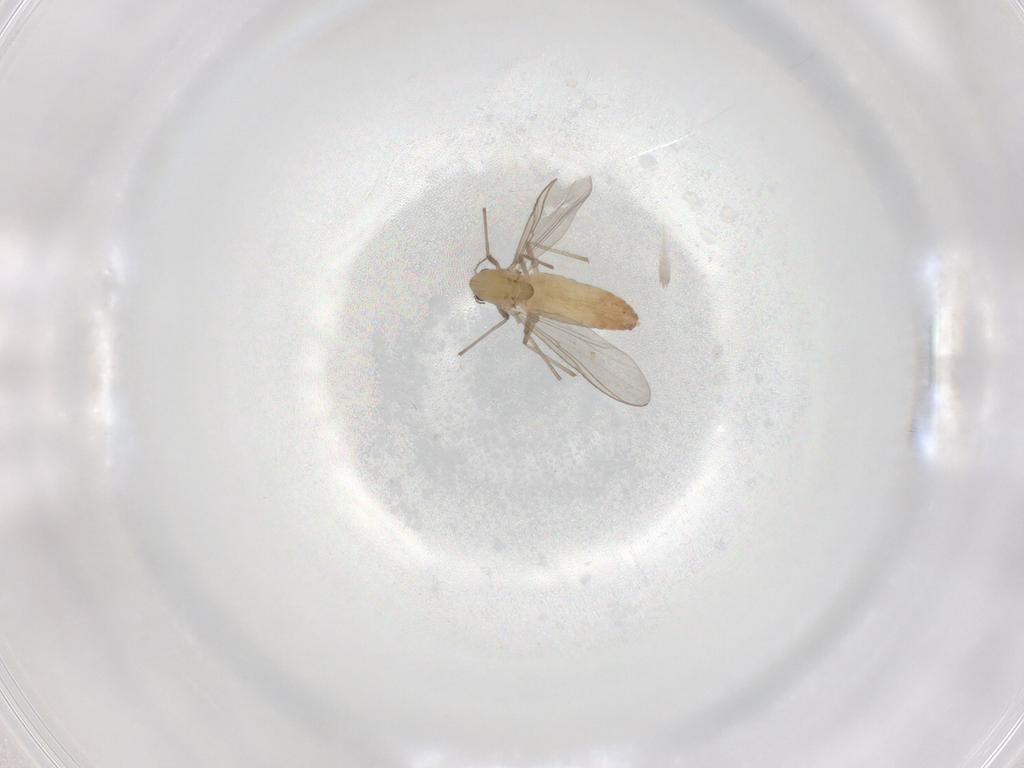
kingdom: Animalia
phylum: Arthropoda
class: Insecta
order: Diptera
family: Chironomidae
